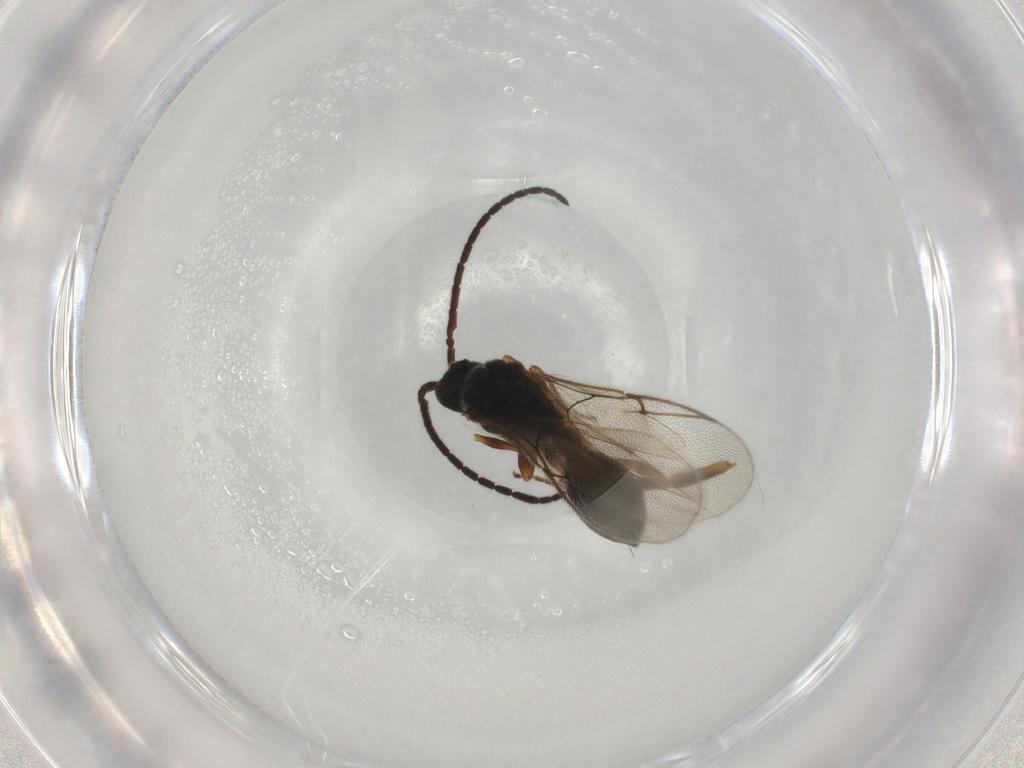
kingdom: Animalia
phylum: Arthropoda
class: Insecta
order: Hymenoptera
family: Ichneumonidae
